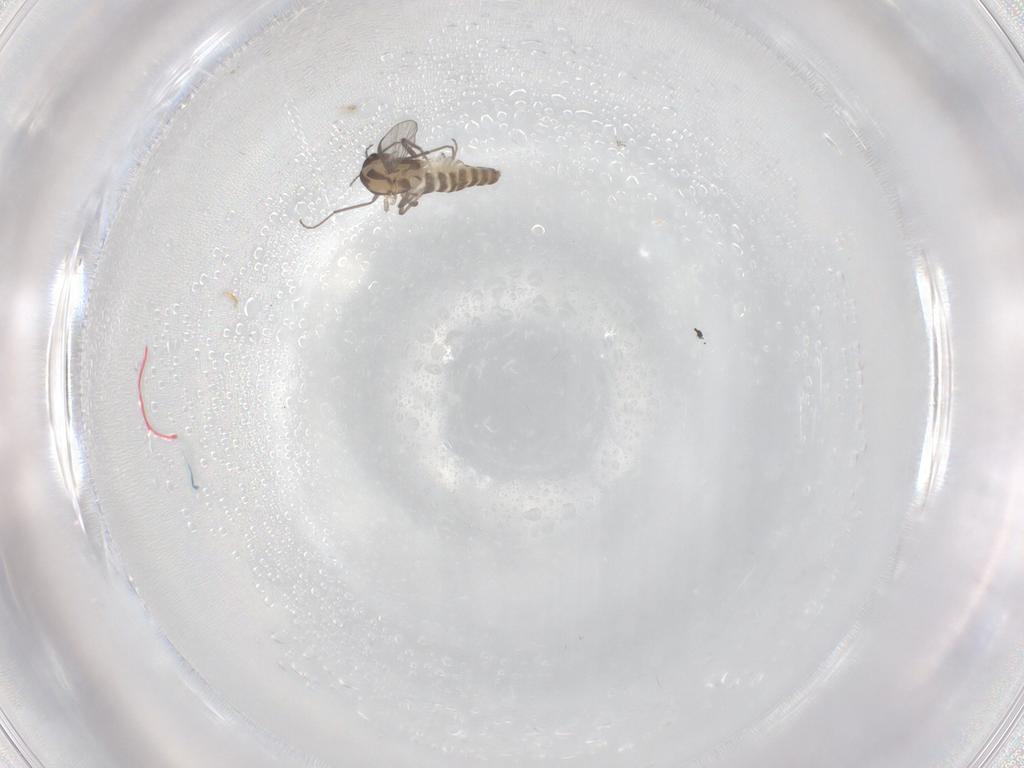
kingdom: Animalia
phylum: Arthropoda
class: Insecta
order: Diptera
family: Chironomidae
